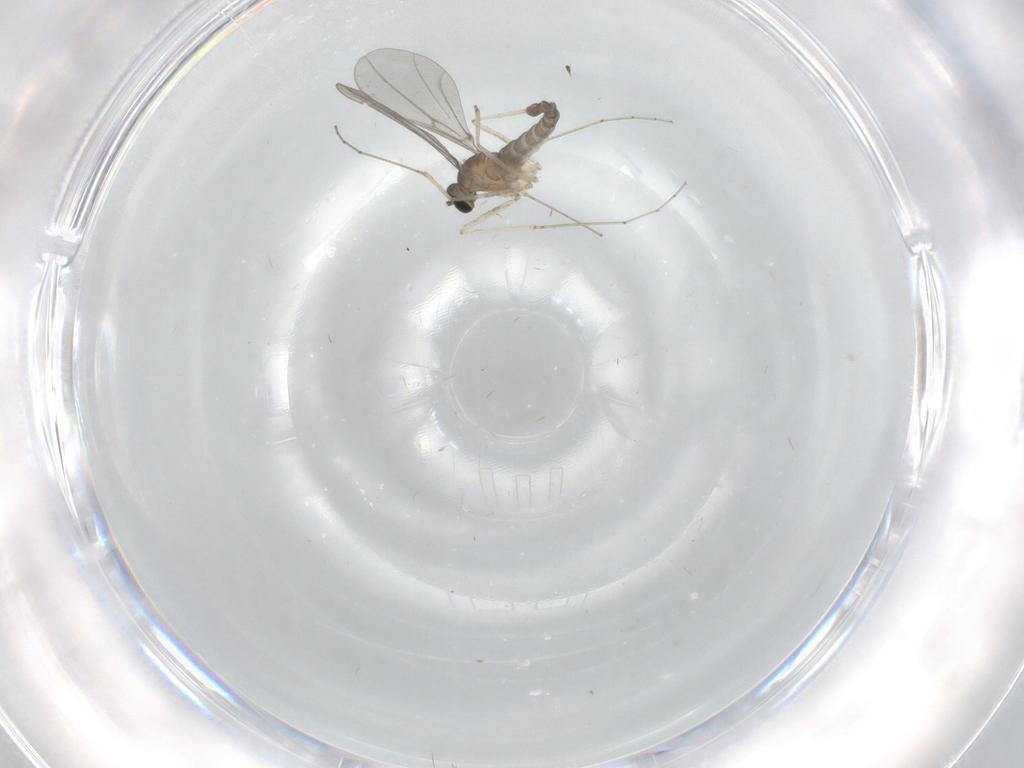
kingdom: Animalia
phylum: Arthropoda
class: Insecta
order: Diptera
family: Cecidomyiidae
